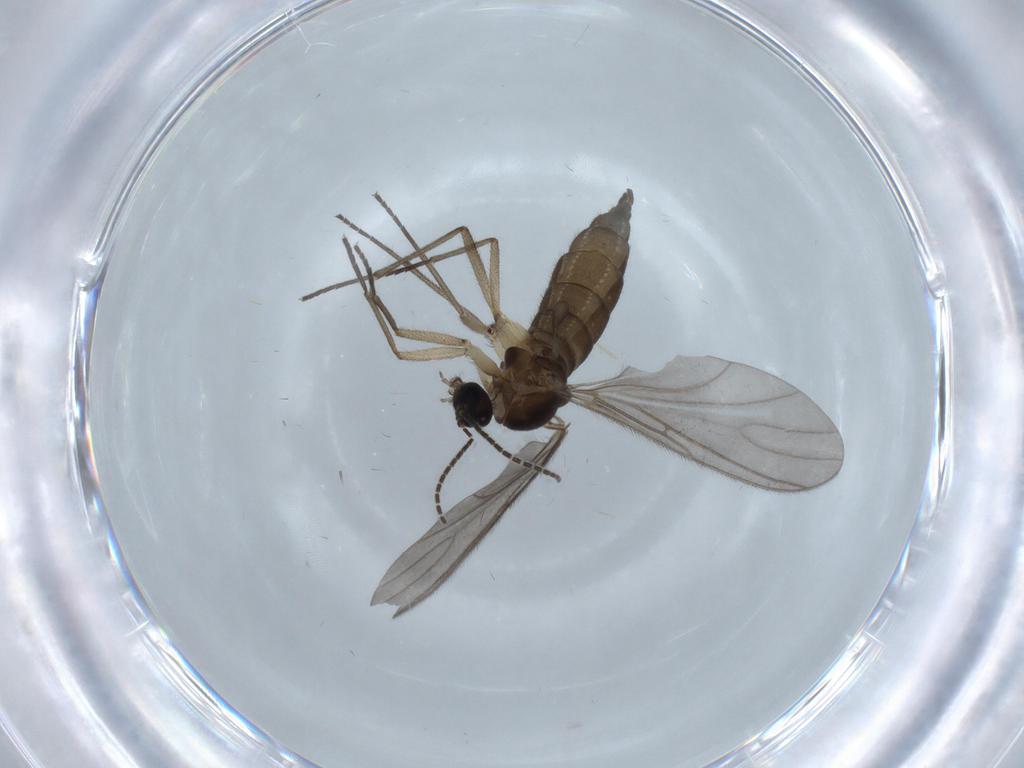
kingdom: Animalia
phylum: Arthropoda
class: Insecta
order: Diptera
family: Sciaridae
